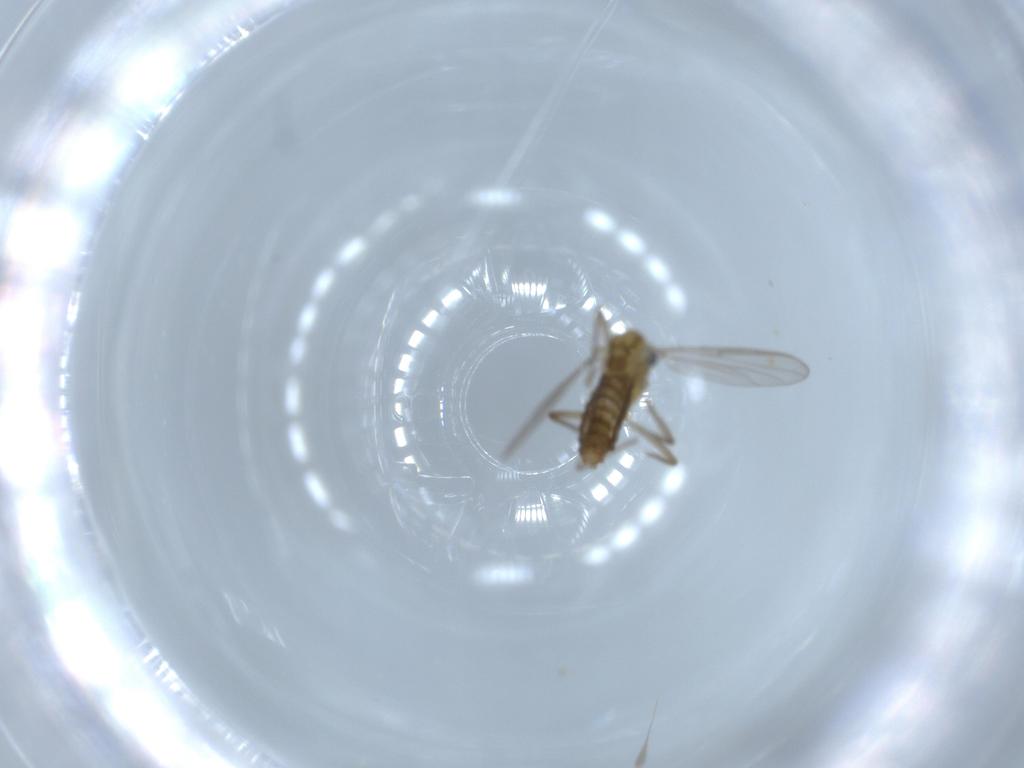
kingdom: Animalia
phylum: Arthropoda
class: Insecta
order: Diptera
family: Chironomidae
